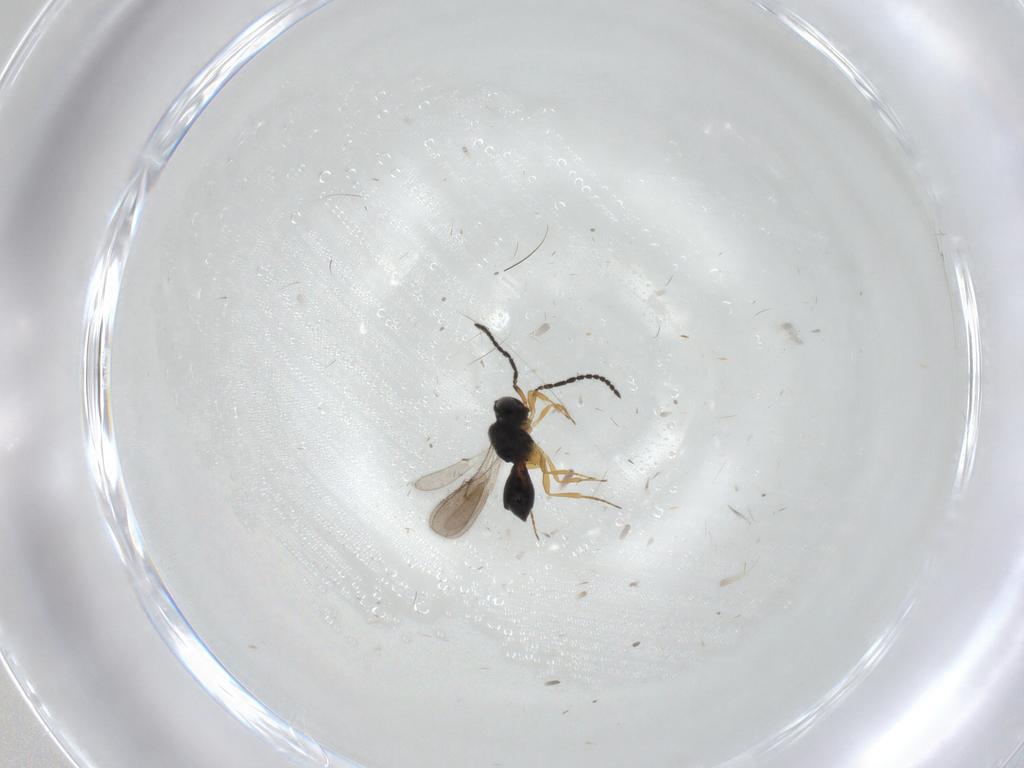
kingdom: Animalia
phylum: Arthropoda
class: Insecta
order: Hymenoptera
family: Scelionidae
